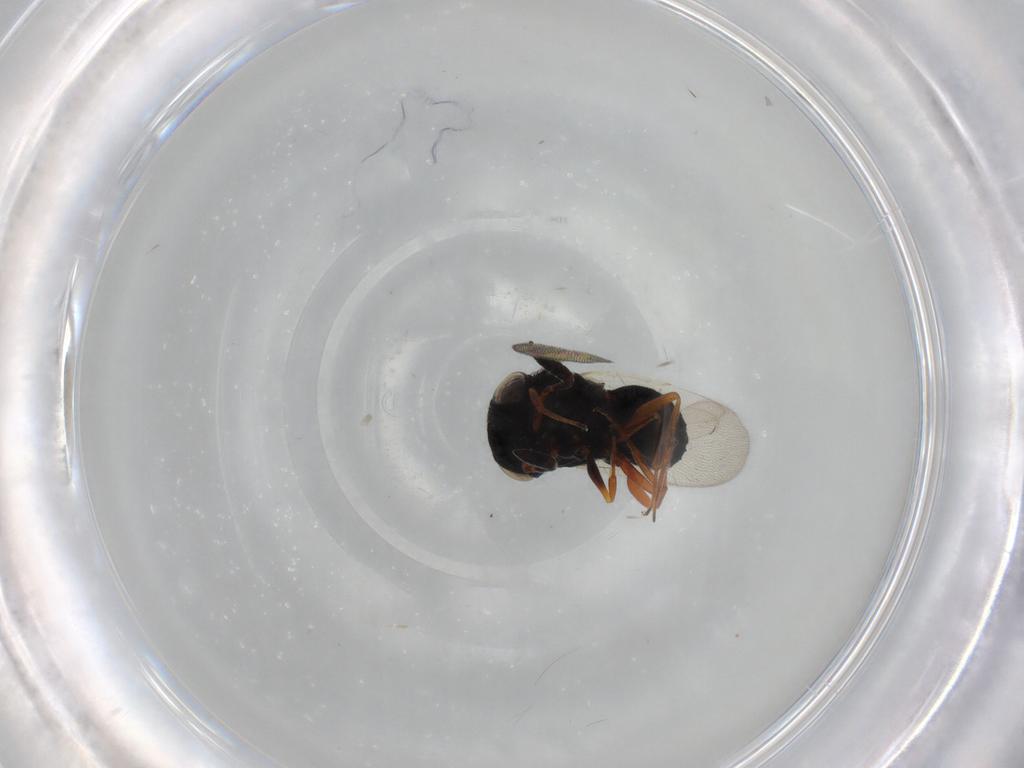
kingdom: Animalia
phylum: Arthropoda
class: Insecta
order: Hymenoptera
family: Scelionidae
